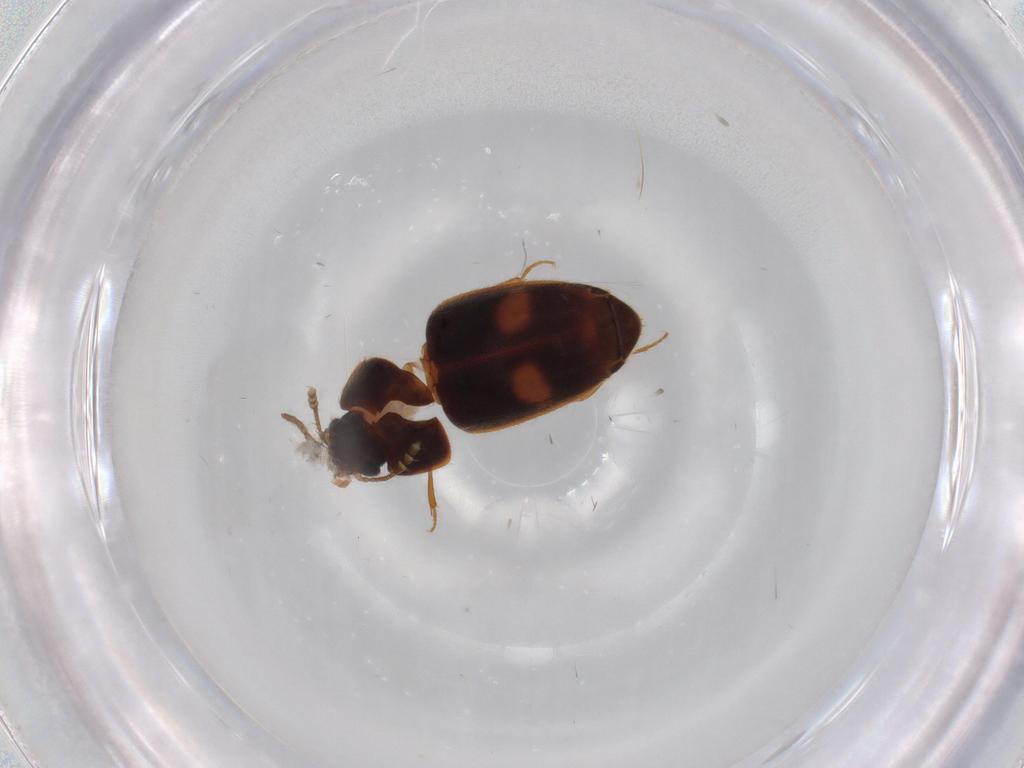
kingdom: Animalia
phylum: Arthropoda
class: Insecta
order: Coleoptera
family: Mycetophagidae
